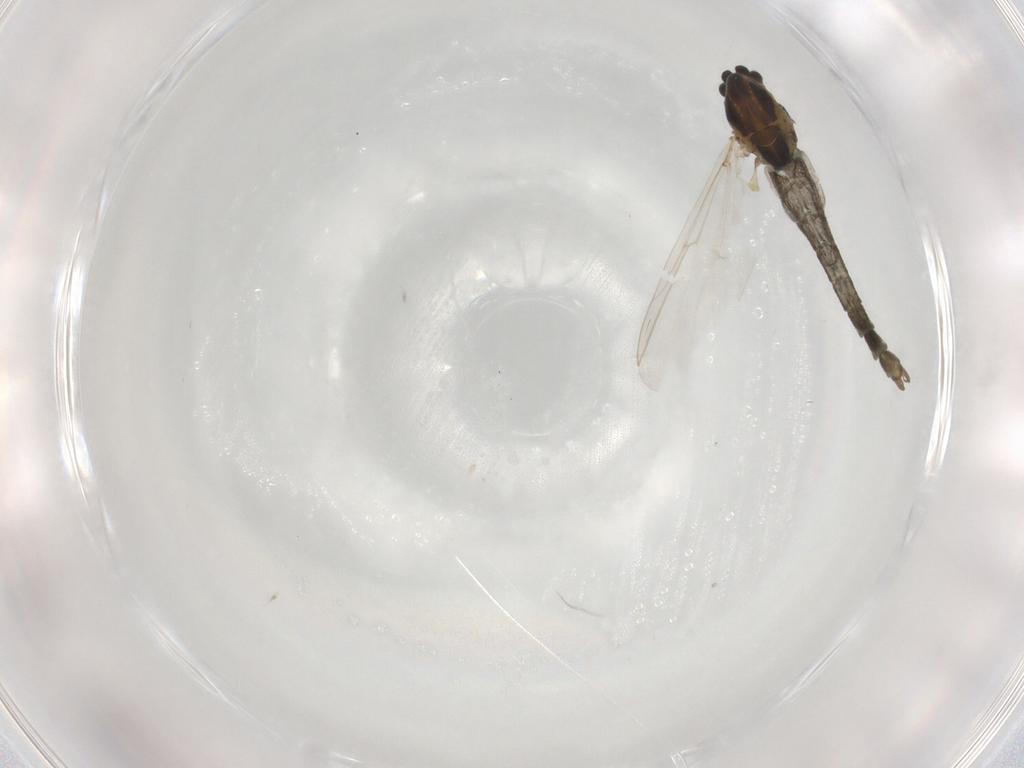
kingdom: Animalia
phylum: Arthropoda
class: Insecta
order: Diptera
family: Chironomidae
